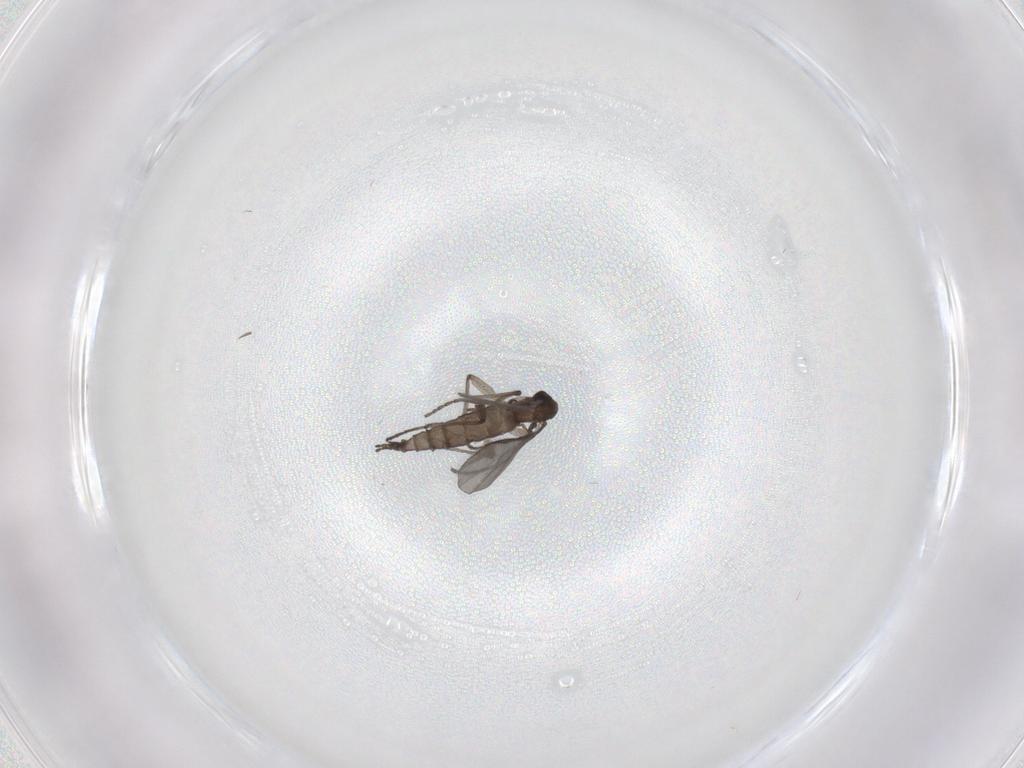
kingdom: Animalia
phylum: Arthropoda
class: Insecta
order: Diptera
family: Sciaridae
